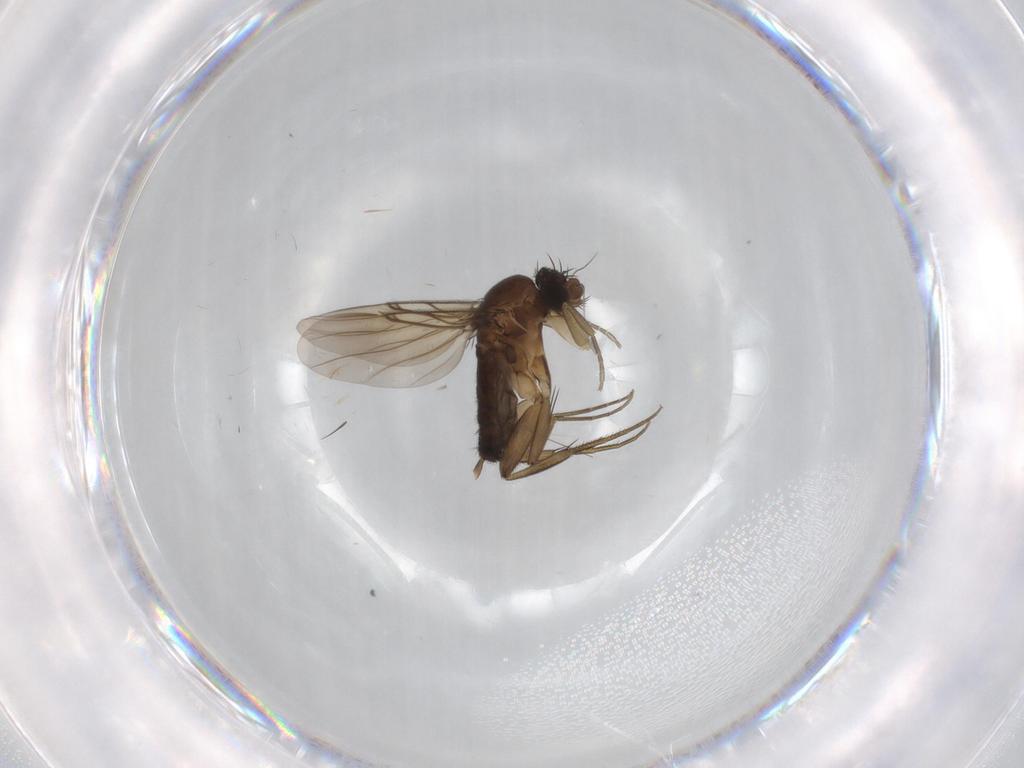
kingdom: Animalia
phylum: Arthropoda
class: Insecta
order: Diptera
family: Phoridae
